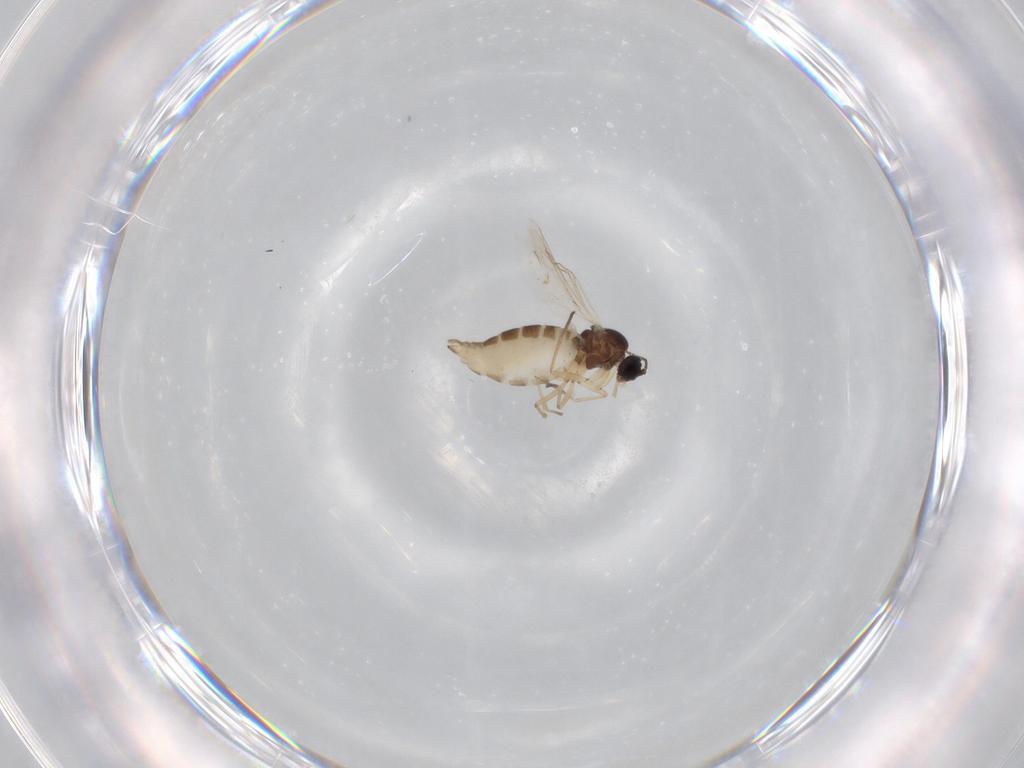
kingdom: Animalia
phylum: Arthropoda
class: Insecta
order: Diptera
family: Sciaridae
